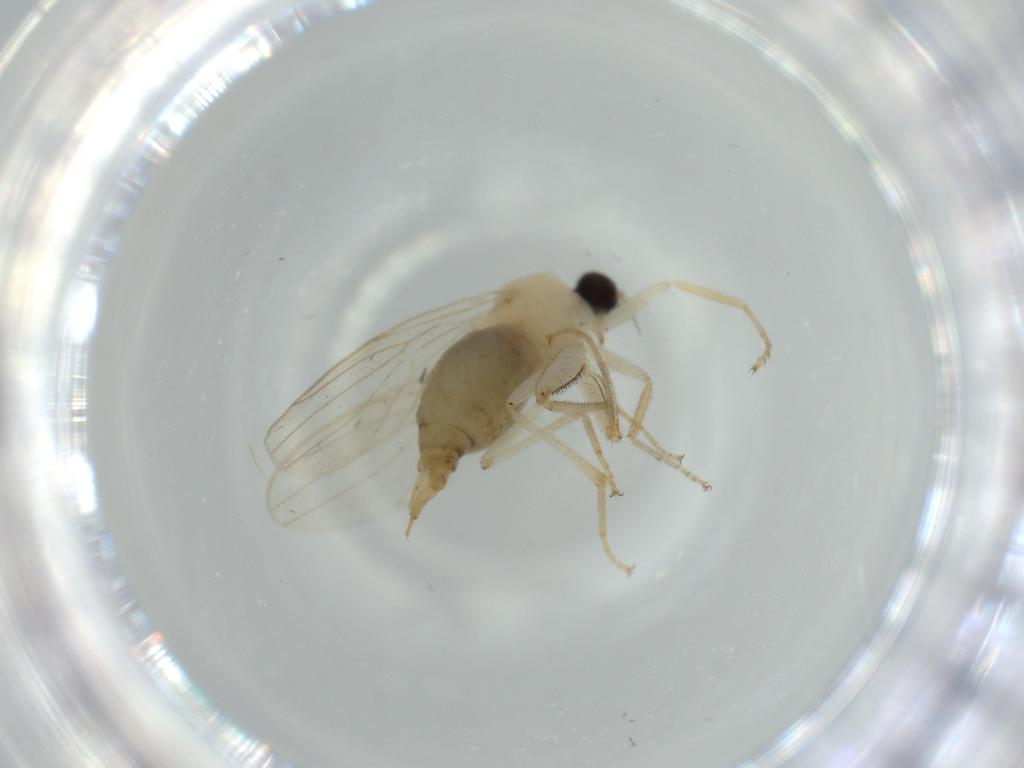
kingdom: Animalia
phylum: Arthropoda
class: Insecta
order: Diptera
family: Hybotidae
